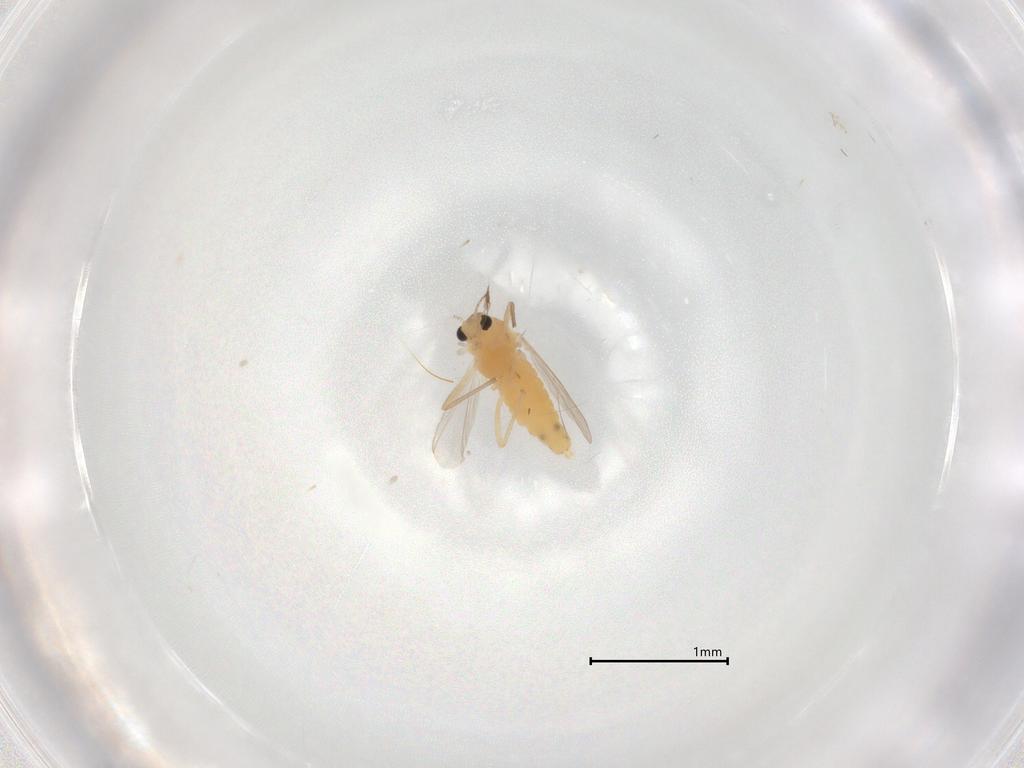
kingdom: Animalia
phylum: Arthropoda
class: Insecta
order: Diptera
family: Chironomidae
